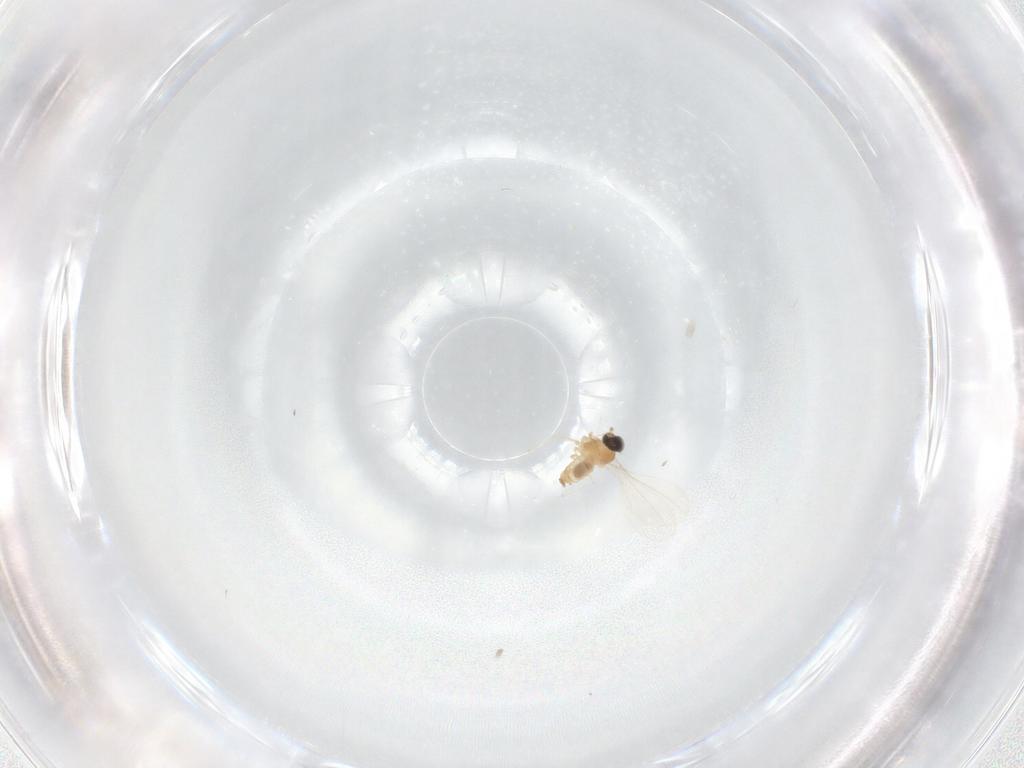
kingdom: Animalia
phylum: Arthropoda
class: Insecta
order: Diptera
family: Cecidomyiidae
